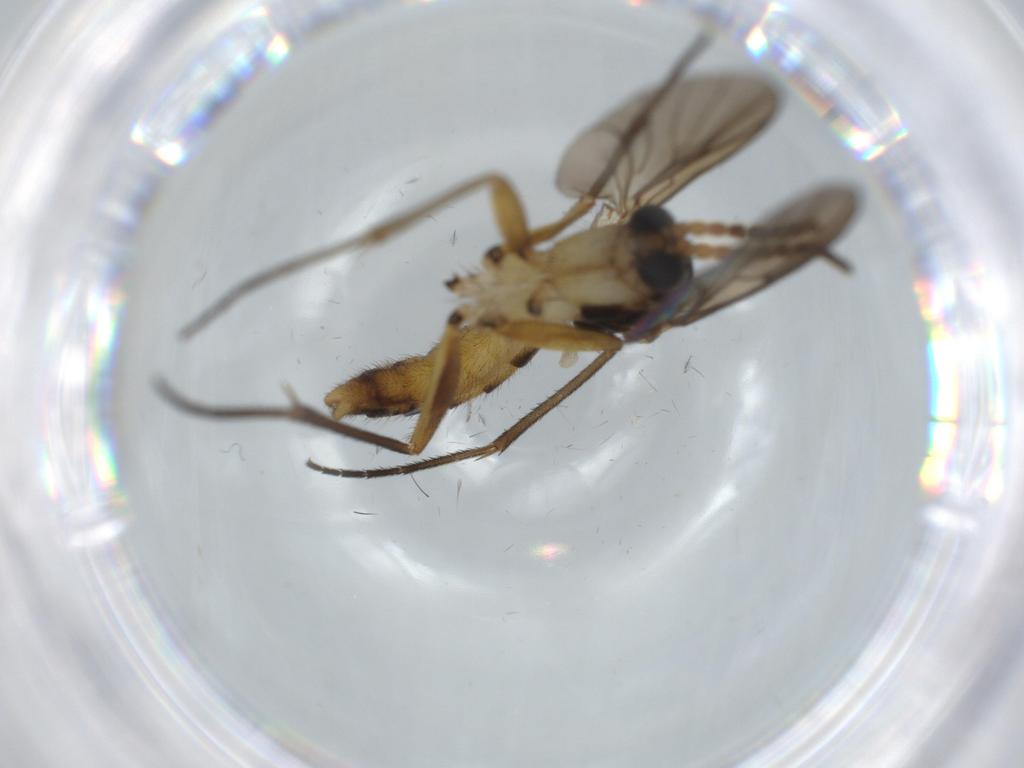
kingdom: Animalia
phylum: Arthropoda
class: Insecta
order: Diptera
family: Sciaridae
